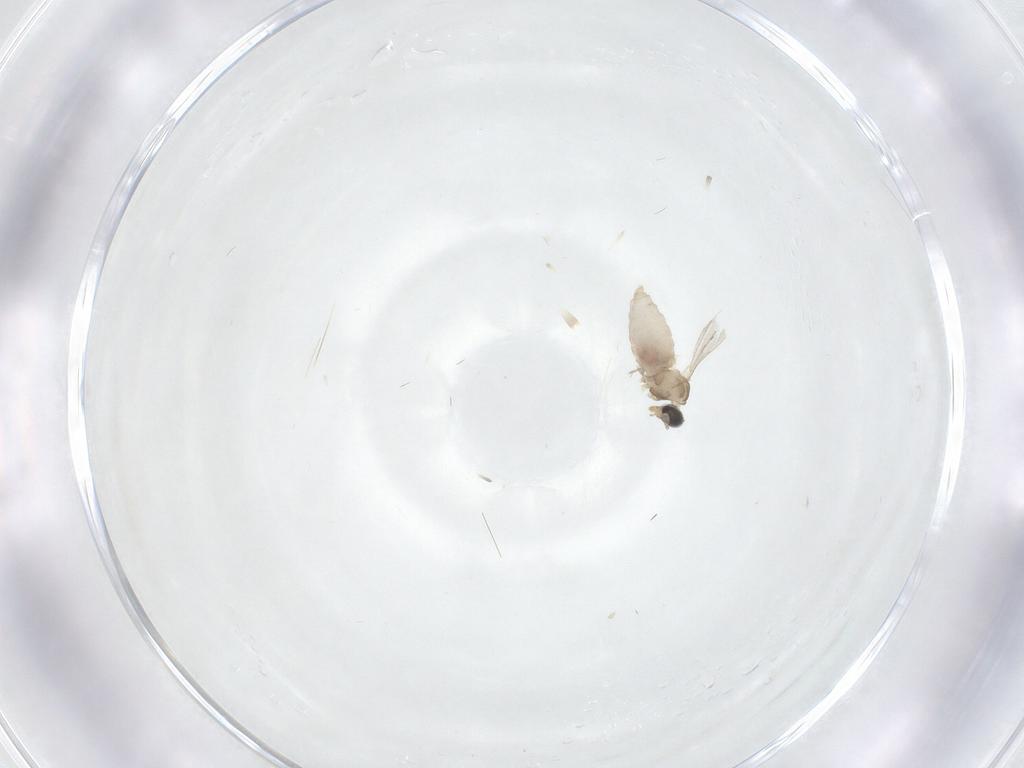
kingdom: Animalia
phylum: Arthropoda
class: Insecta
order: Diptera
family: Cecidomyiidae
